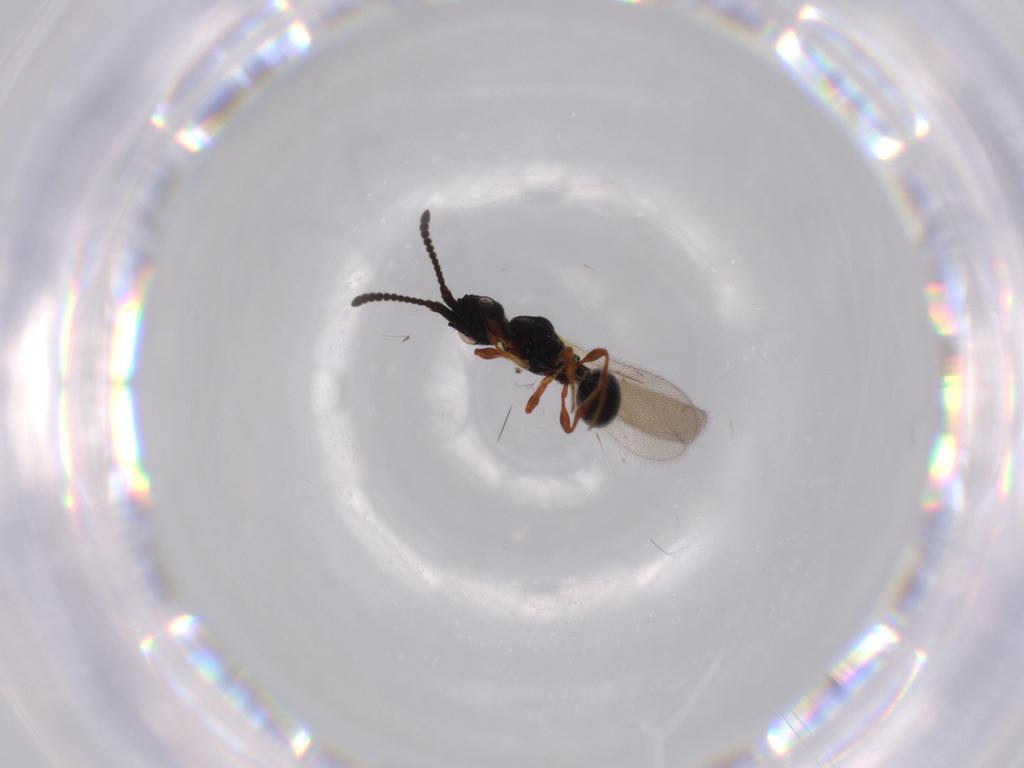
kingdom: Animalia
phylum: Arthropoda
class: Insecta
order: Hymenoptera
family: Diapriidae
